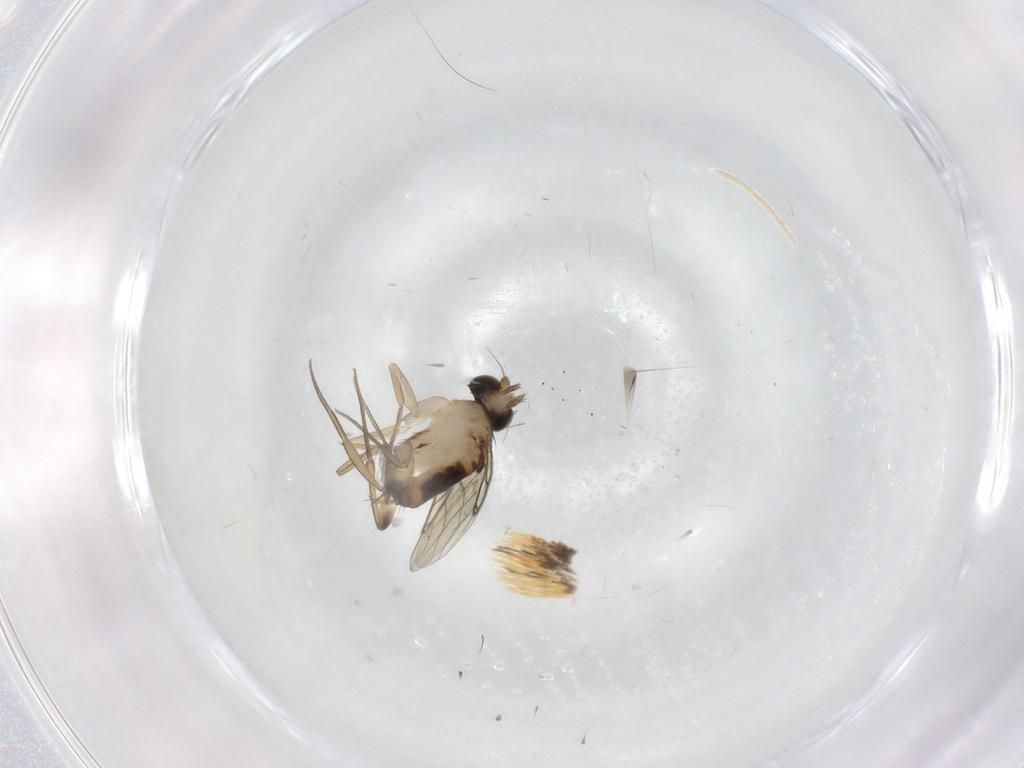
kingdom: Animalia
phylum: Arthropoda
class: Insecta
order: Diptera
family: Phoridae
